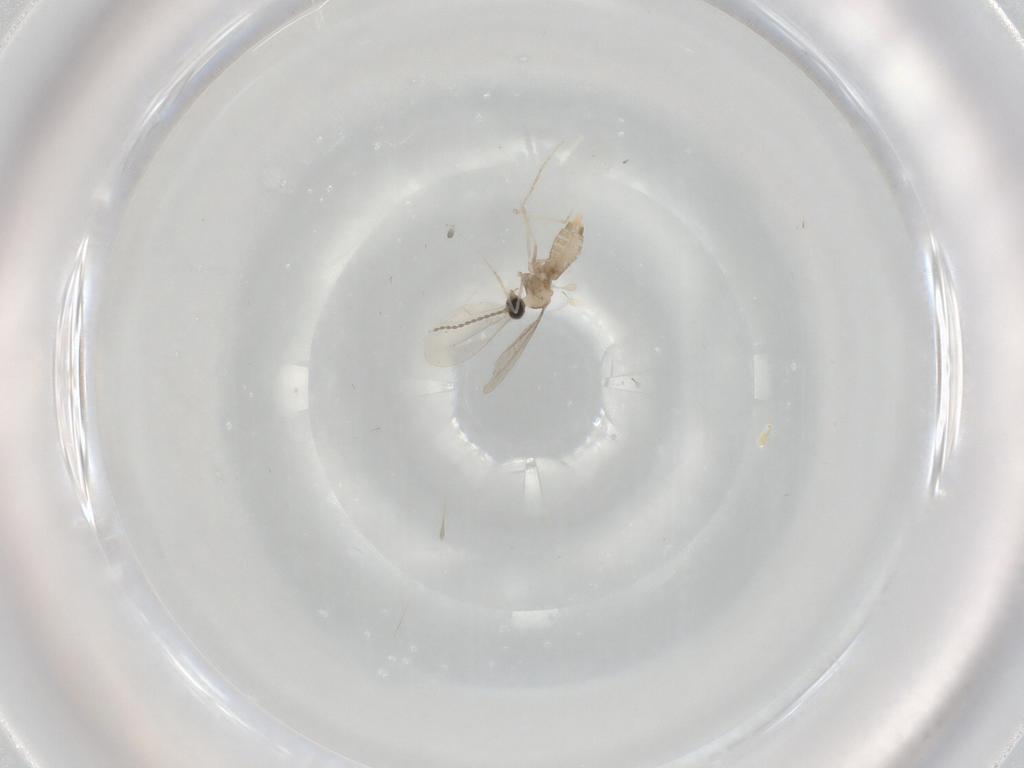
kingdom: Animalia
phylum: Arthropoda
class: Insecta
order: Diptera
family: Cecidomyiidae
